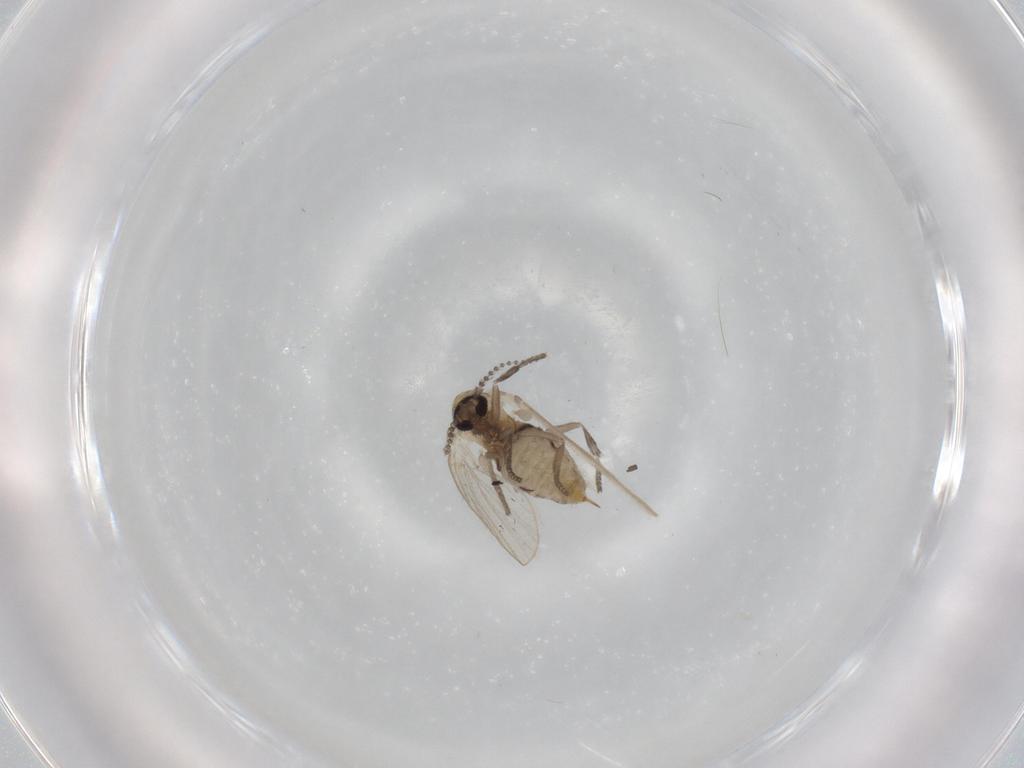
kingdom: Animalia
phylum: Arthropoda
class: Insecta
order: Diptera
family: Psychodidae
